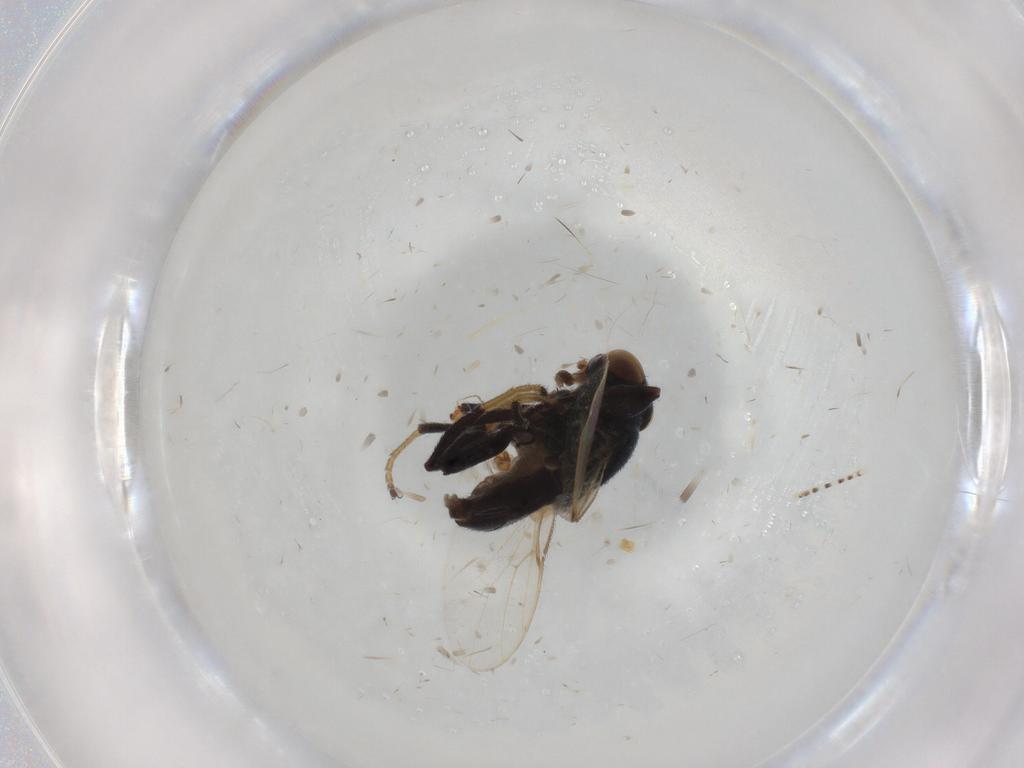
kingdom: Animalia
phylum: Arthropoda
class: Insecta
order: Diptera
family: Chloropidae
